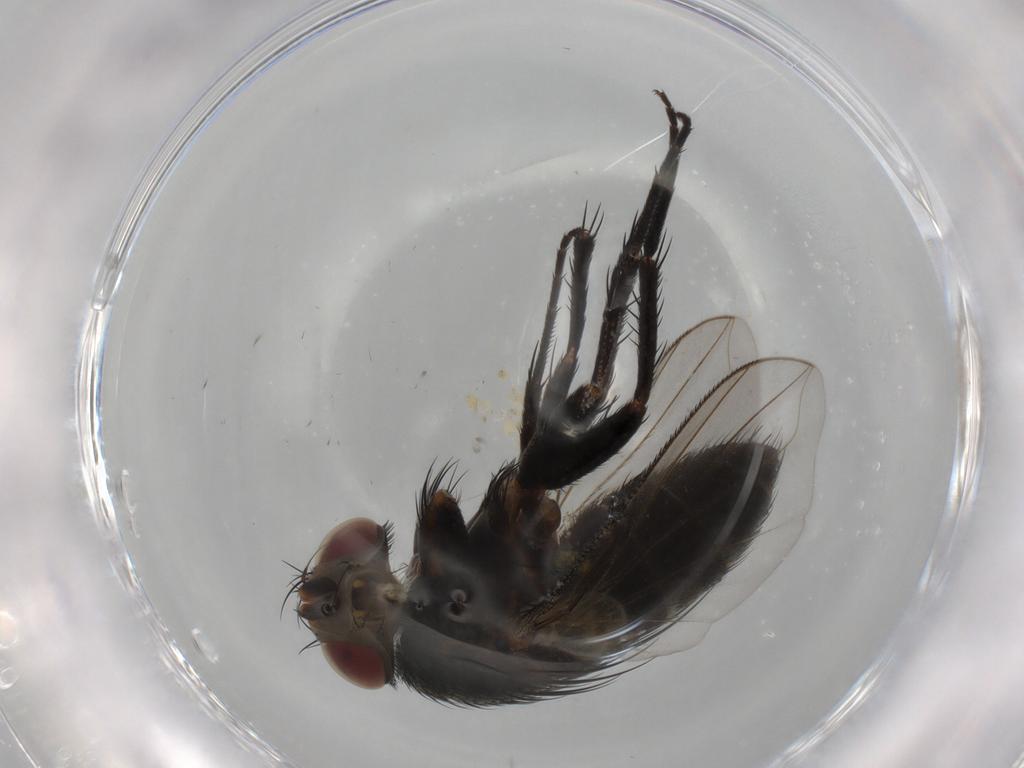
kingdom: Animalia
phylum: Arthropoda
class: Insecta
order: Diptera
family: Tachinidae
